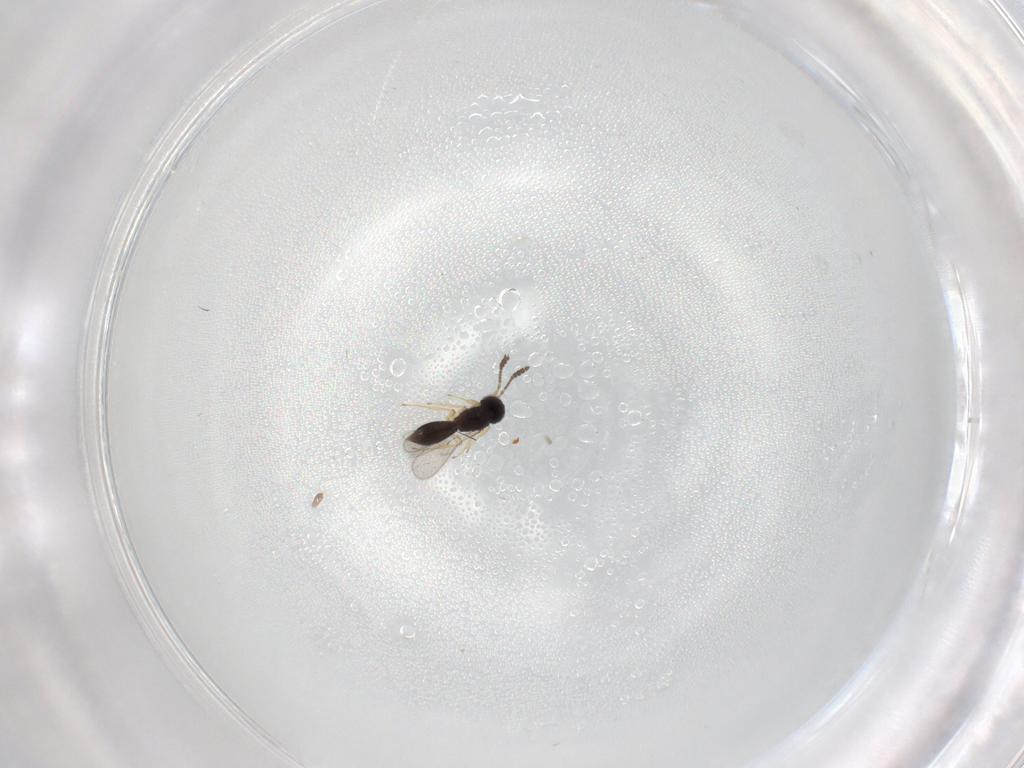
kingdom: Animalia
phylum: Arthropoda
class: Insecta
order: Hymenoptera
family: Scelionidae
